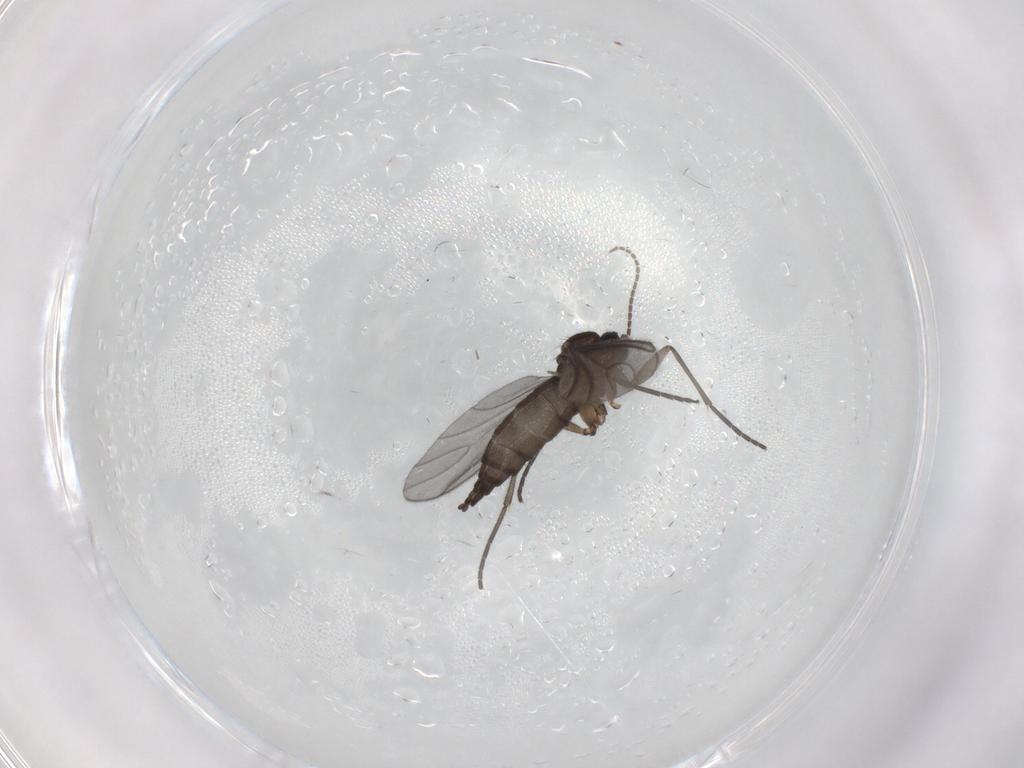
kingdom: Animalia
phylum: Arthropoda
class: Insecta
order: Diptera
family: Sciaridae
